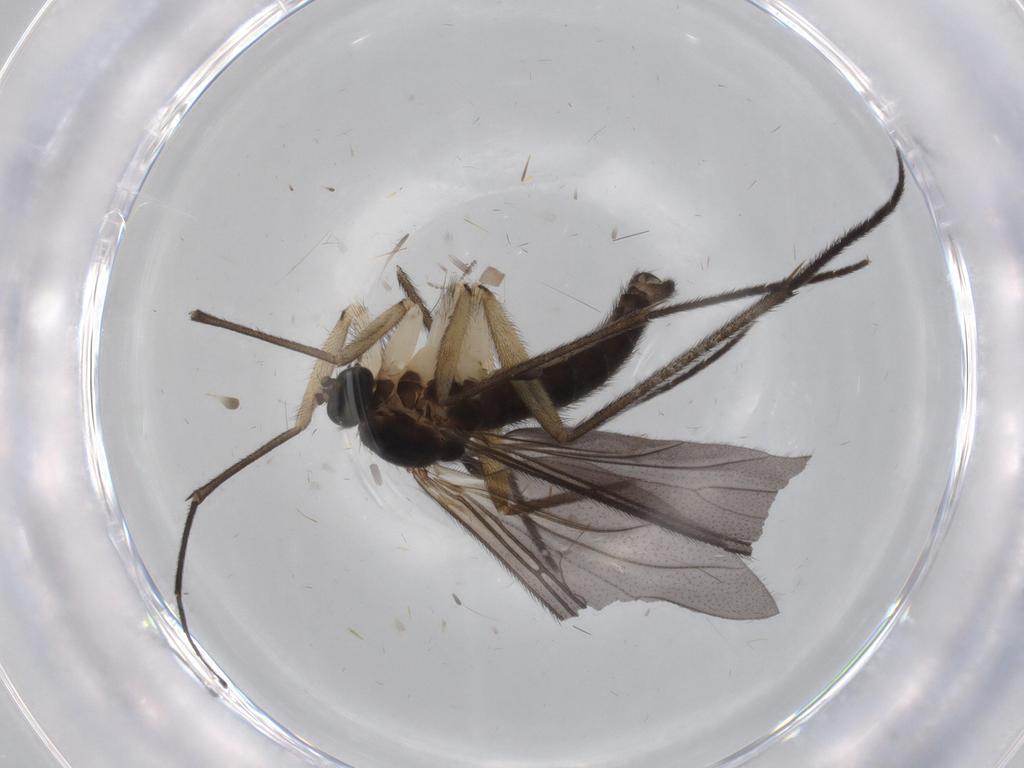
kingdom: Animalia
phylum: Arthropoda
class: Insecta
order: Diptera
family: Sciaridae
